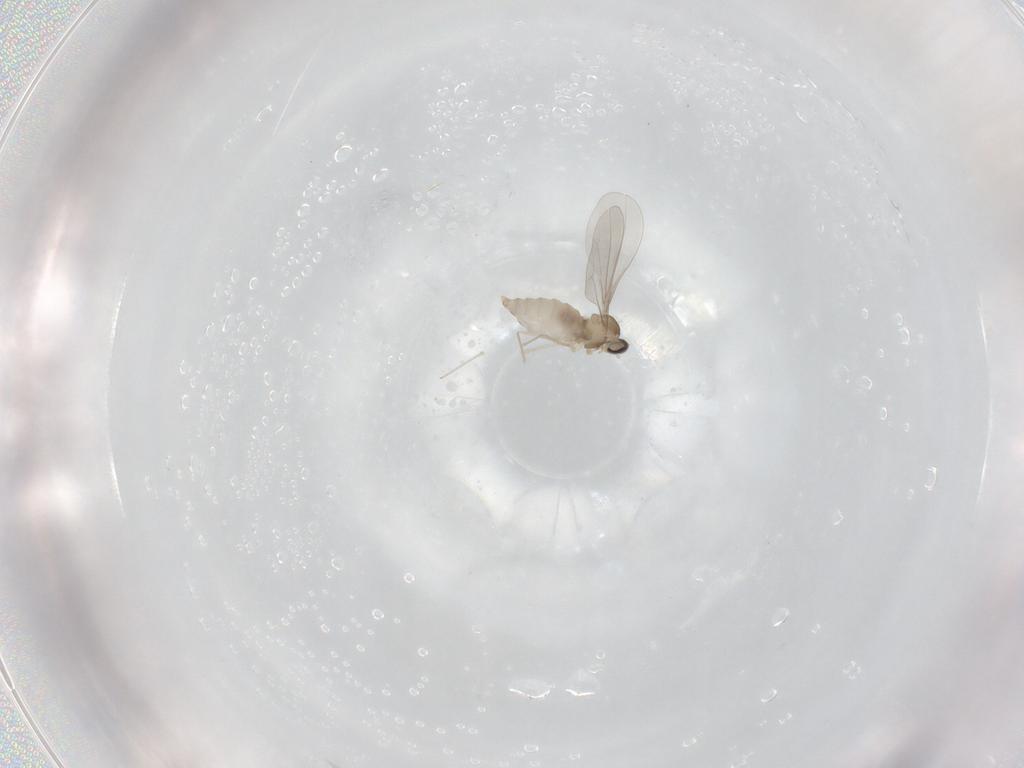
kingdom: Animalia
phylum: Arthropoda
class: Insecta
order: Diptera
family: Cecidomyiidae
